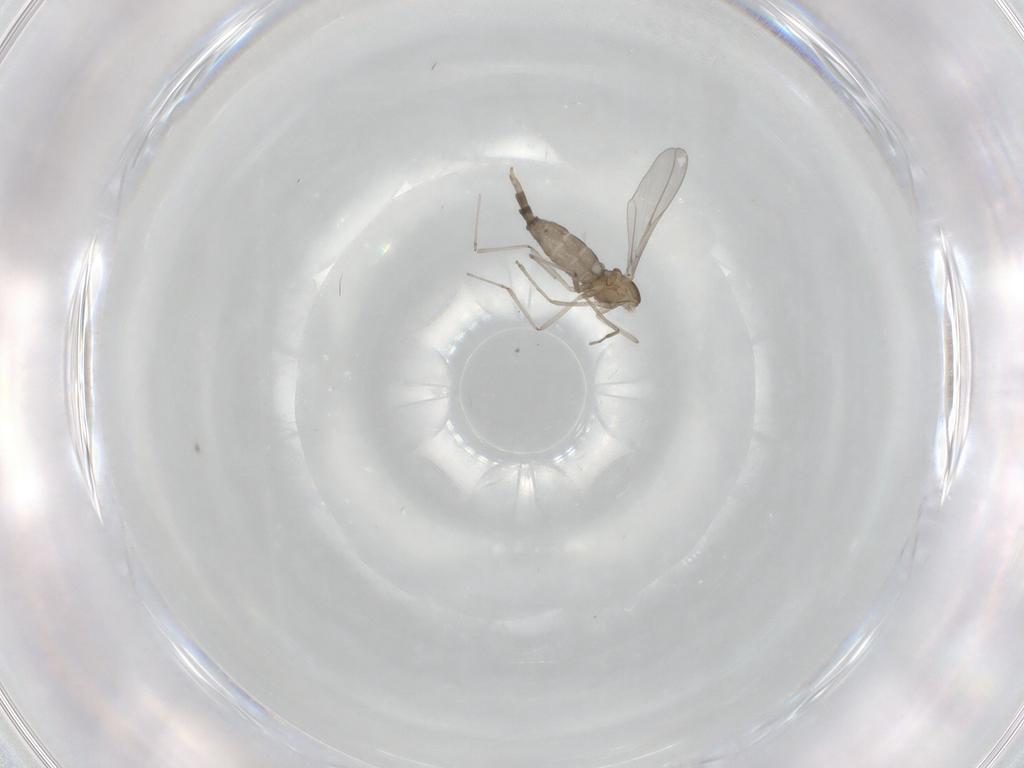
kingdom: Animalia
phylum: Arthropoda
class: Insecta
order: Diptera
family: Cecidomyiidae
